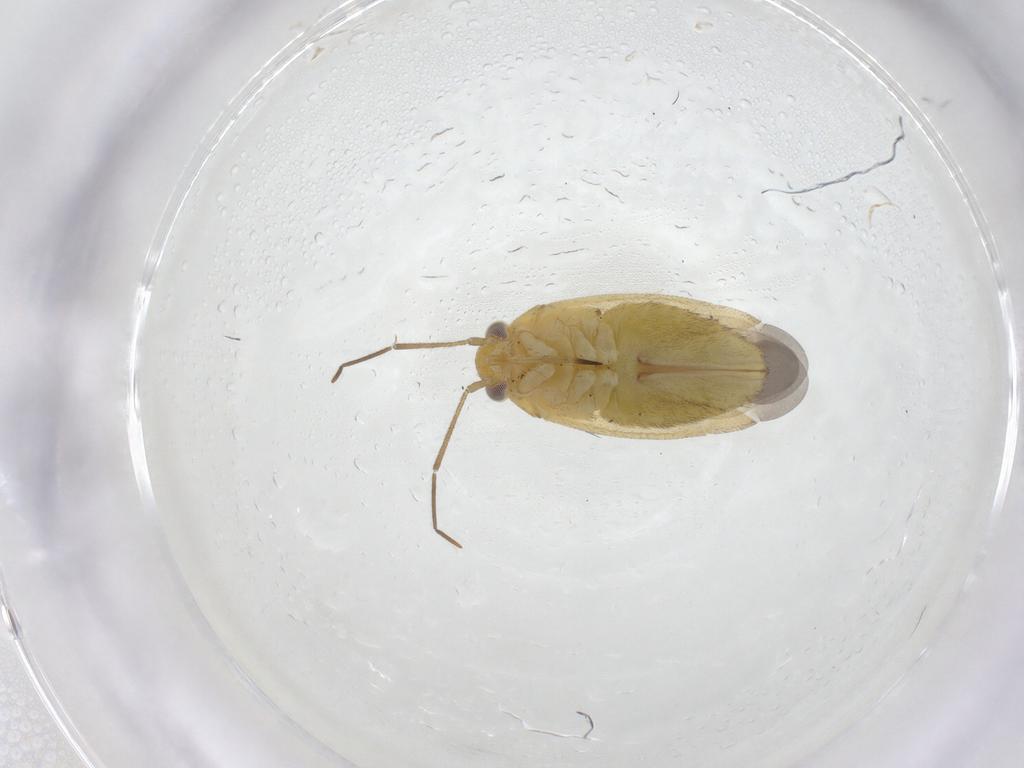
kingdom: Animalia
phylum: Arthropoda
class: Insecta
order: Hemiptera
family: Miridae
